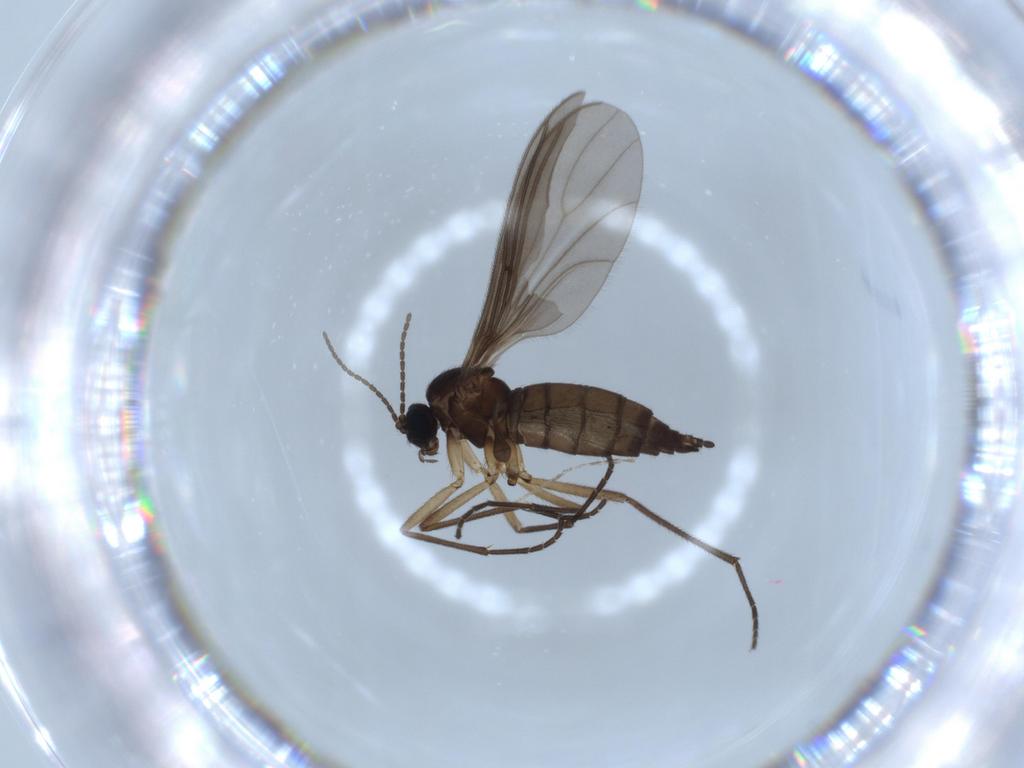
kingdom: Animalia
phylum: Arthropoda
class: Insecta
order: Diptera
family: Sciaridae
